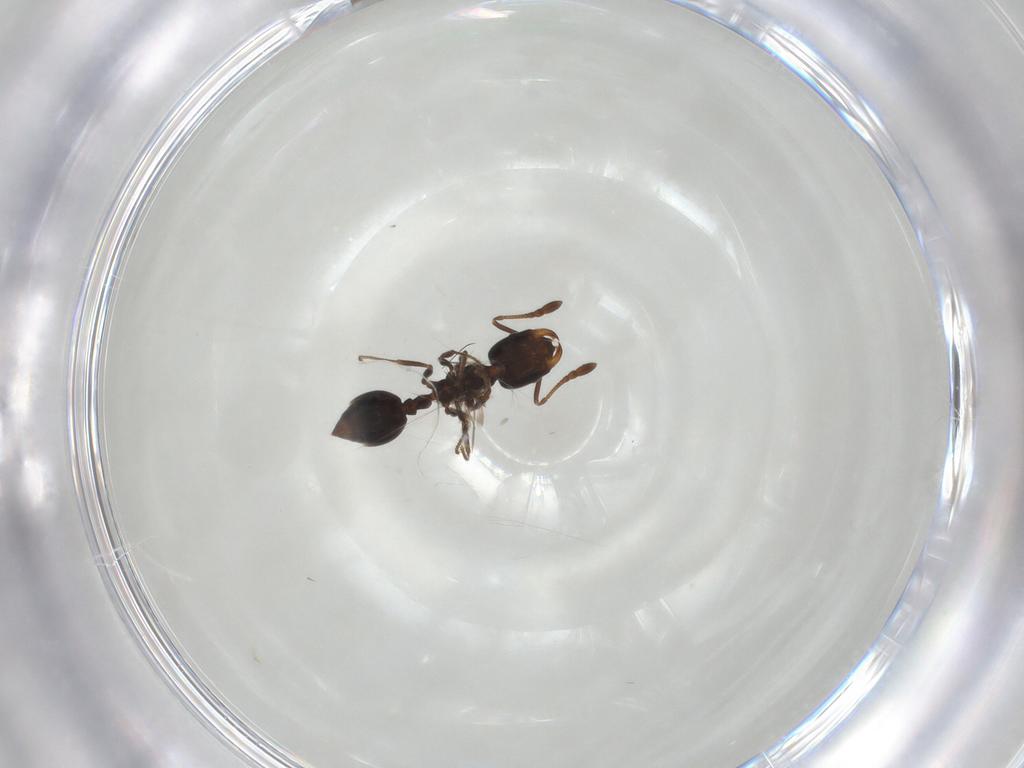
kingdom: Animalia
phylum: Arthropoda
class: Insecta
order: Hymenoptera
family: Formicidae
